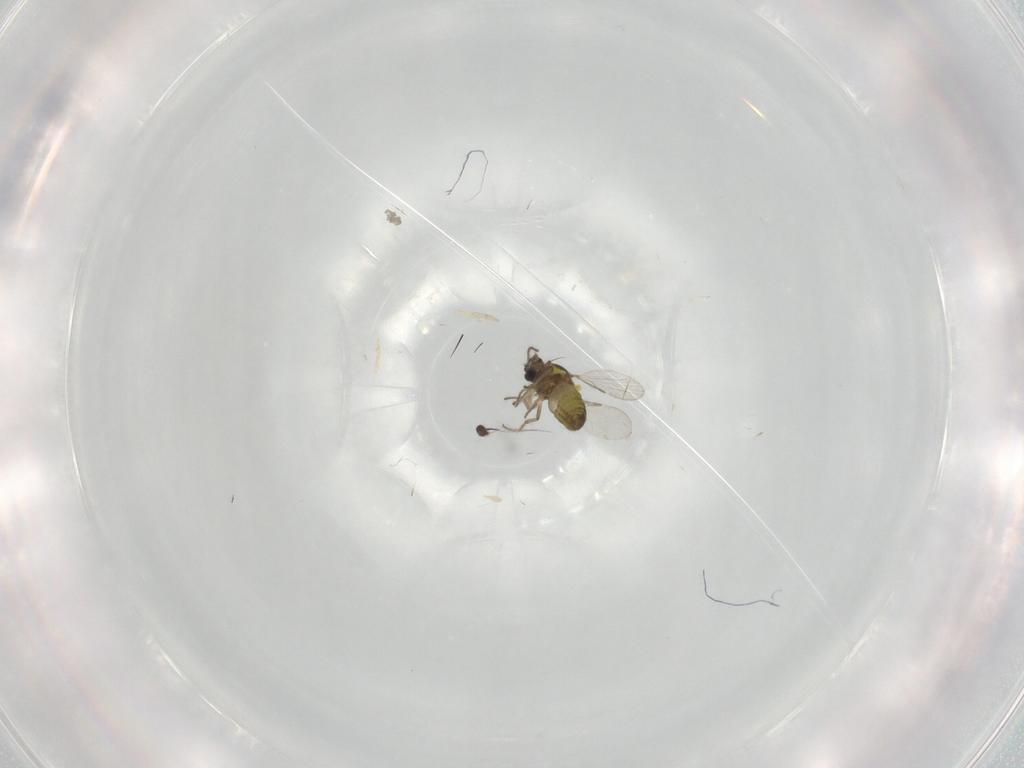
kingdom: Animalia
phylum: Arthropoda
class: Insecta
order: Diptera
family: Ceratopogonidae
